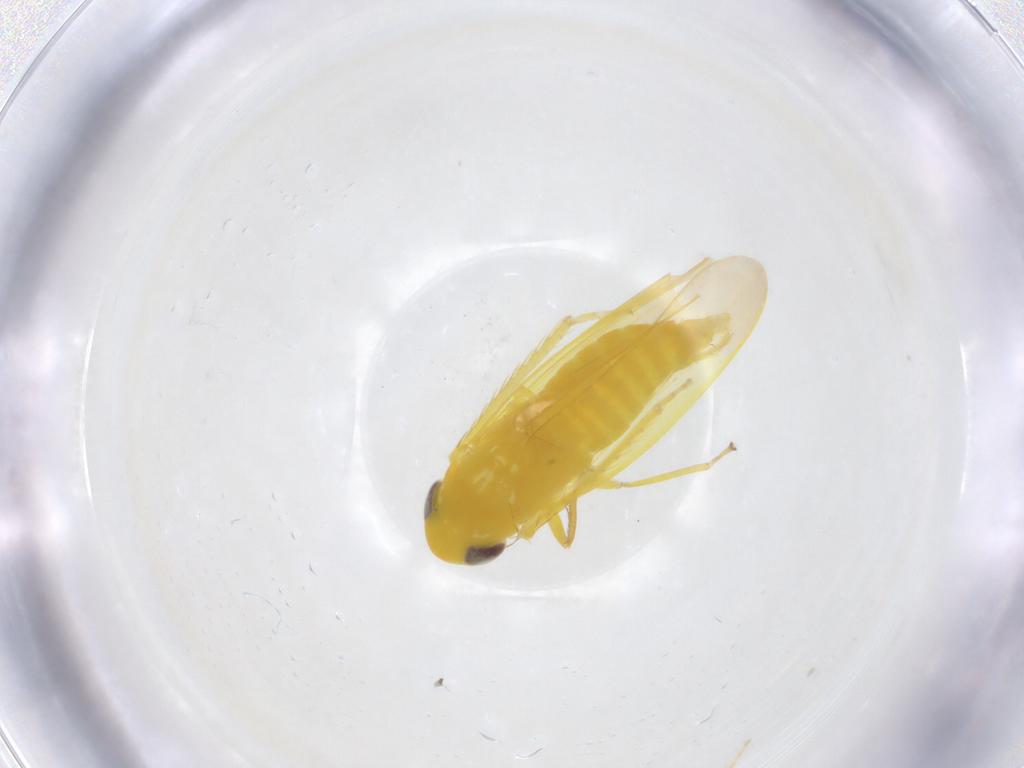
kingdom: Animalia
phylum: Arthropoda
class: Insecta
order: Hemiptera
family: Cicadellidae
